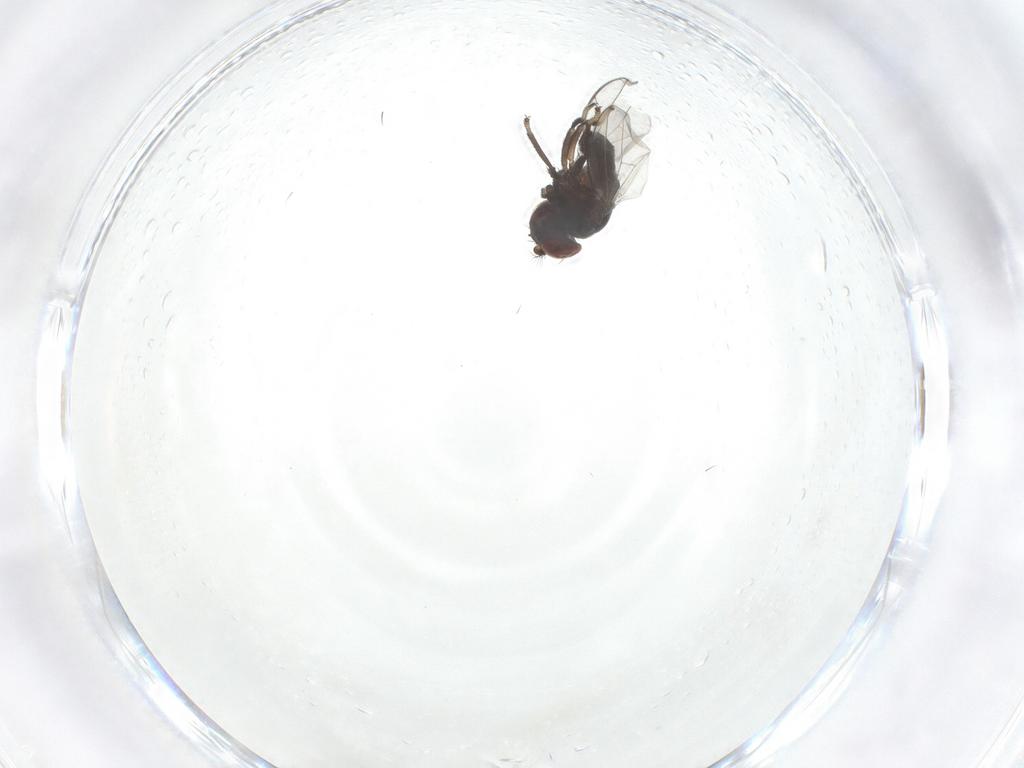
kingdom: Animalia
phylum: Arthropoda
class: Insecta
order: Diptera
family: Ephydridae
